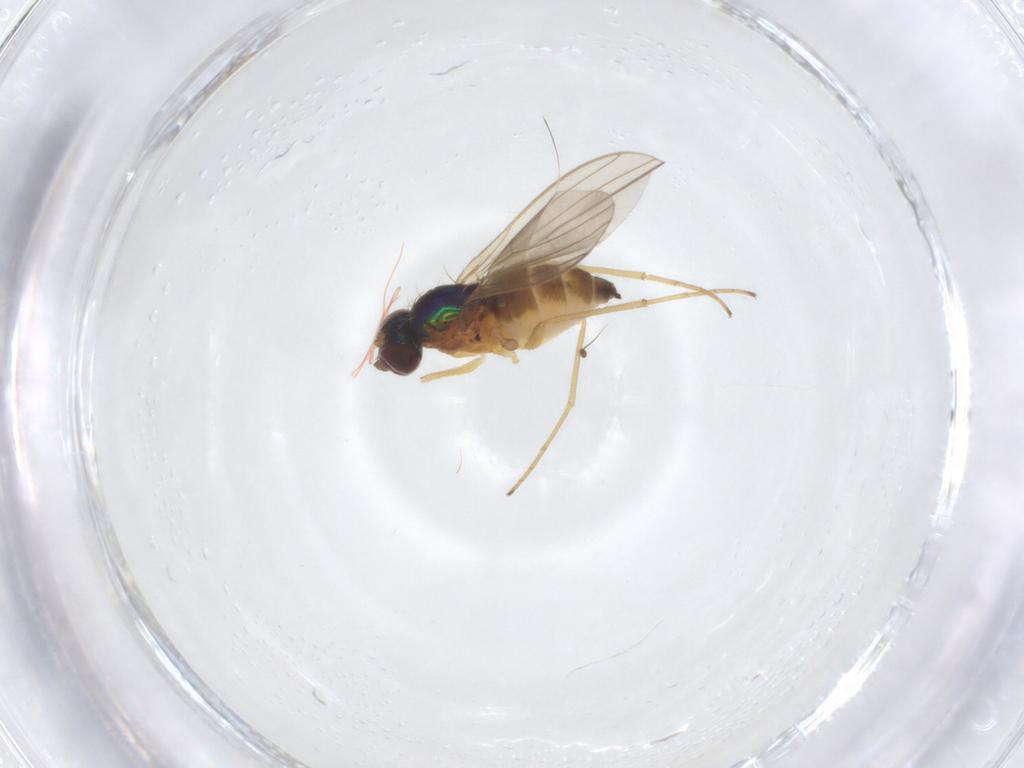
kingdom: Animalia
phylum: Arthropoda
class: Insecta
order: Diptera
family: Dolichopodidae
